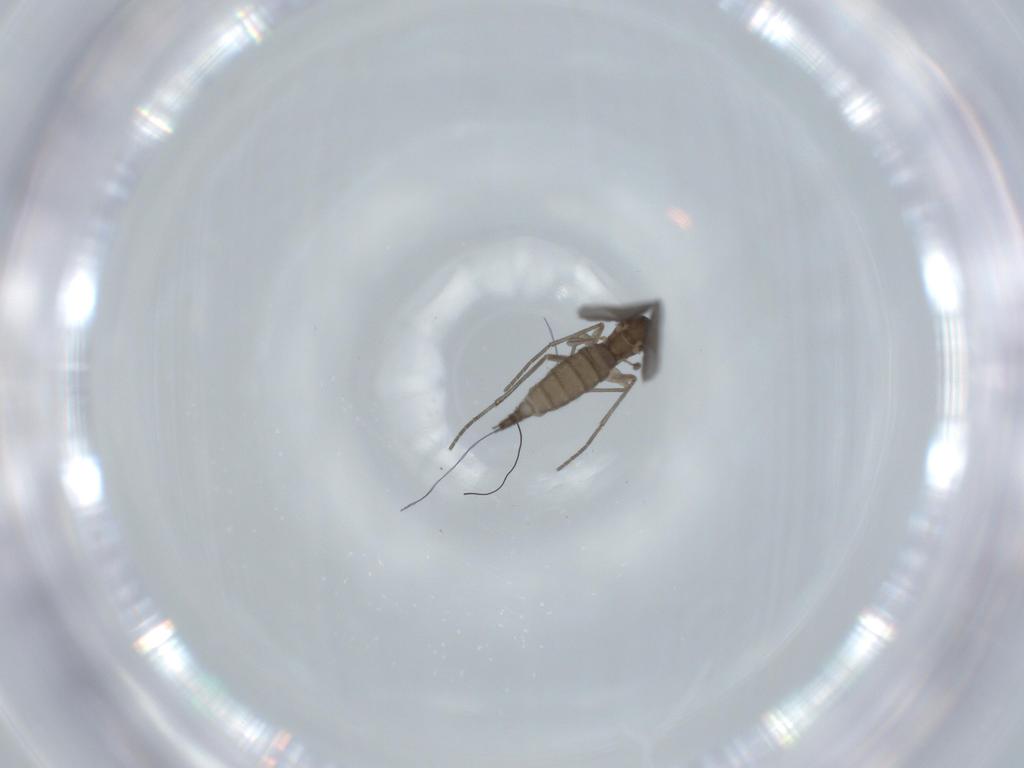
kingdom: Animalia
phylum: Arthropoda
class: Insecta
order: Diptera
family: Sciaridae
